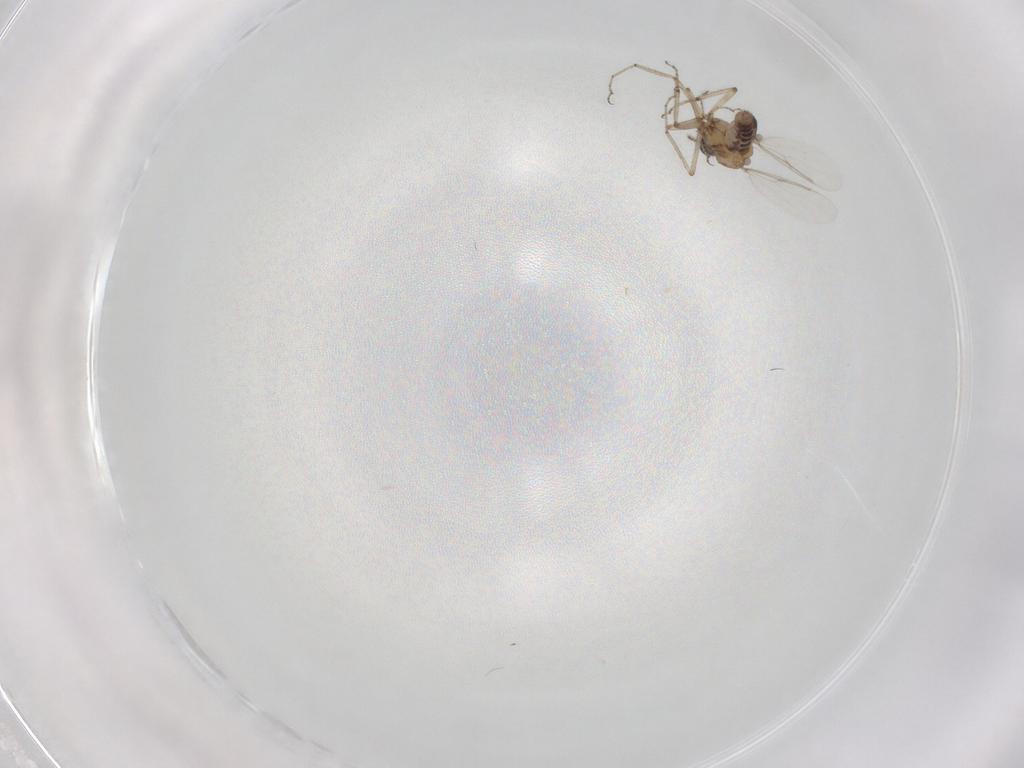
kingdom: Animalia
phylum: Arthropoda
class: Insecta
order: Diptera
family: Ceratopogonidae
